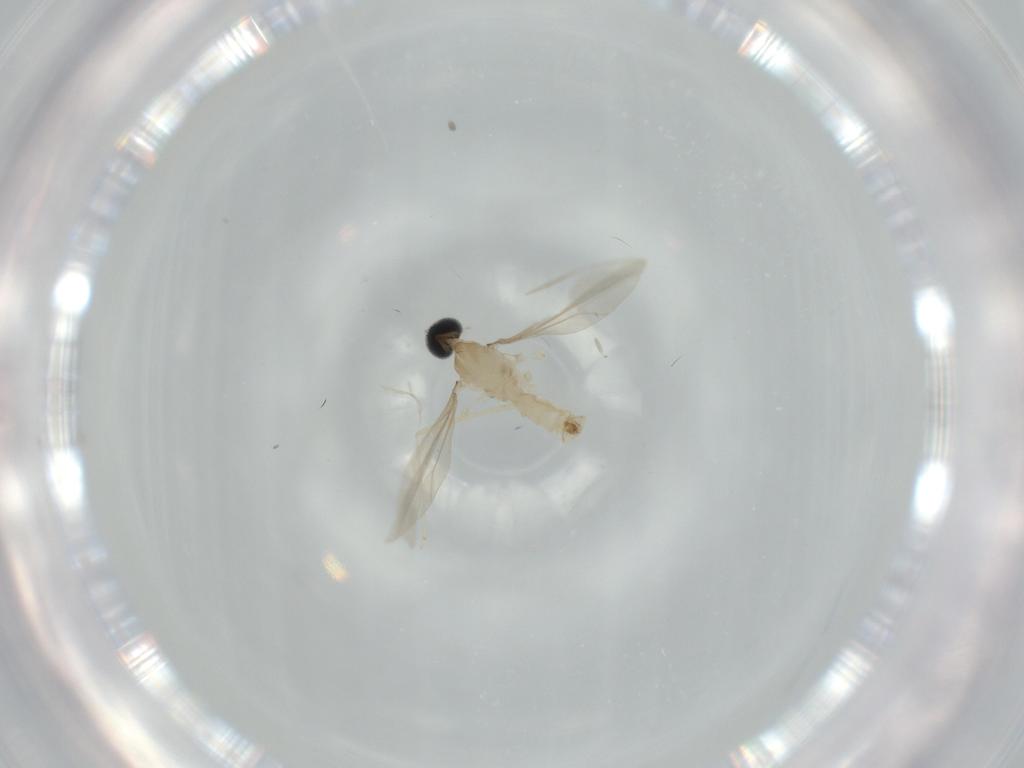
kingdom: Animalia
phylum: Arthropoda
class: Insecta
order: Diptera
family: Cecidomyiidae
